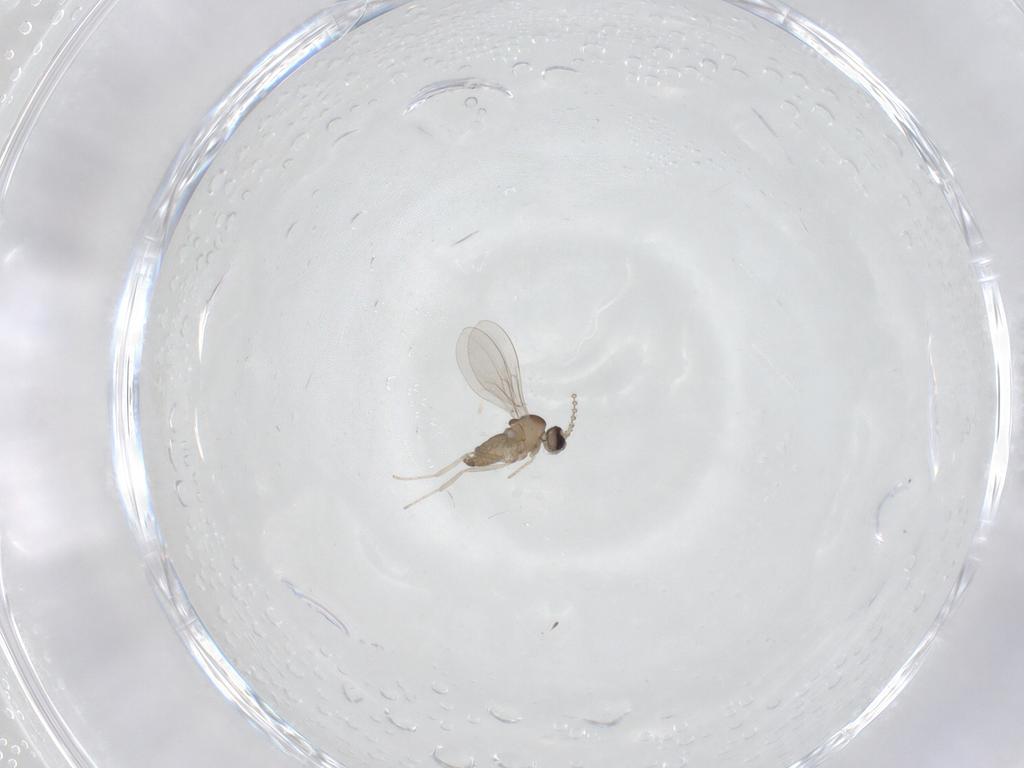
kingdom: Animalia
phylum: Arthropoda
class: Insecta
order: Diptera
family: Cecidomyiidae
